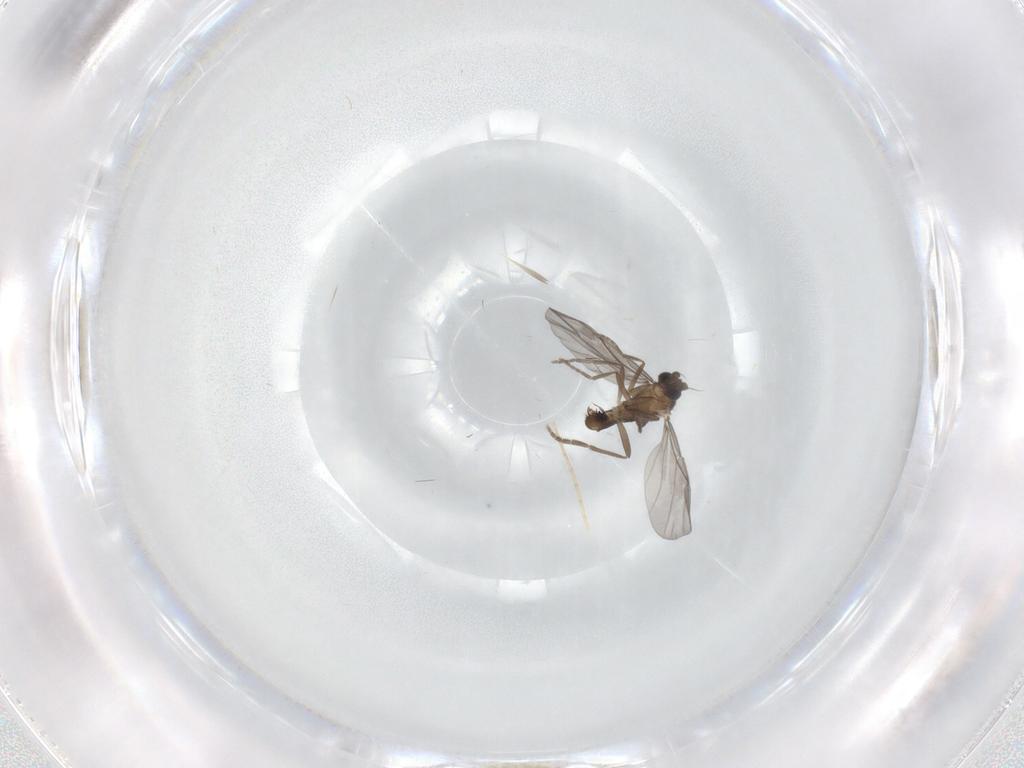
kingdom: Animalia
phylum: Arthropoda
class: Insecta
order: Diptera
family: Phoridae
